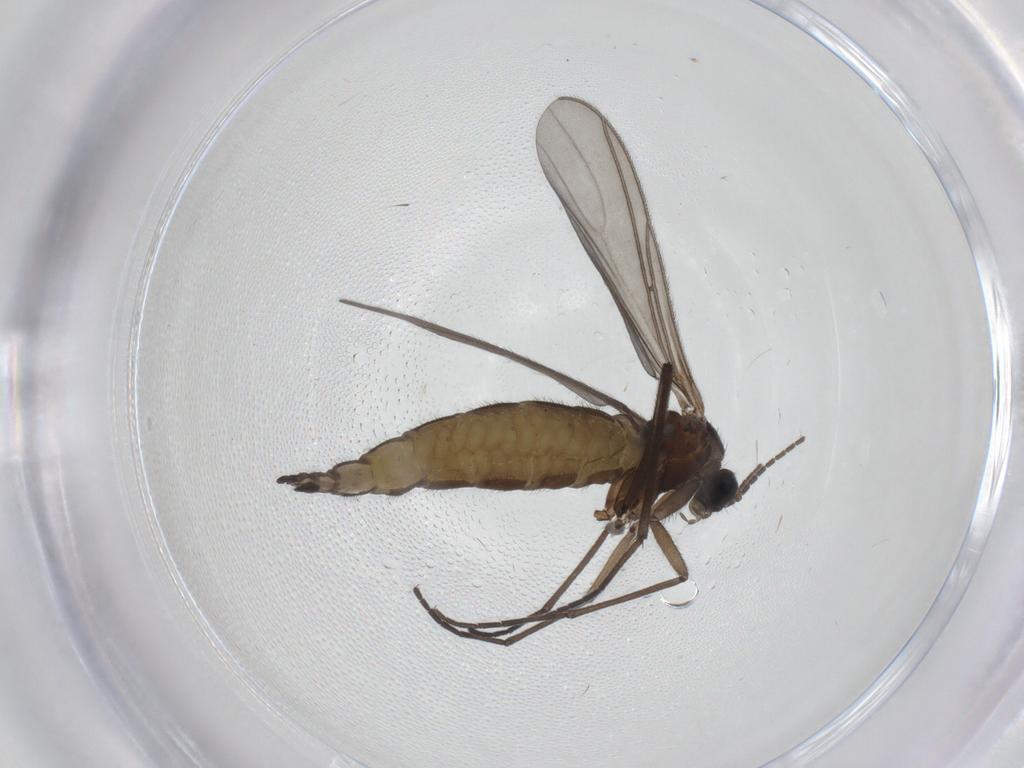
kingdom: Animalia
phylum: Arthropoda
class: Insecta
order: Diptera
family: Sciaridae
